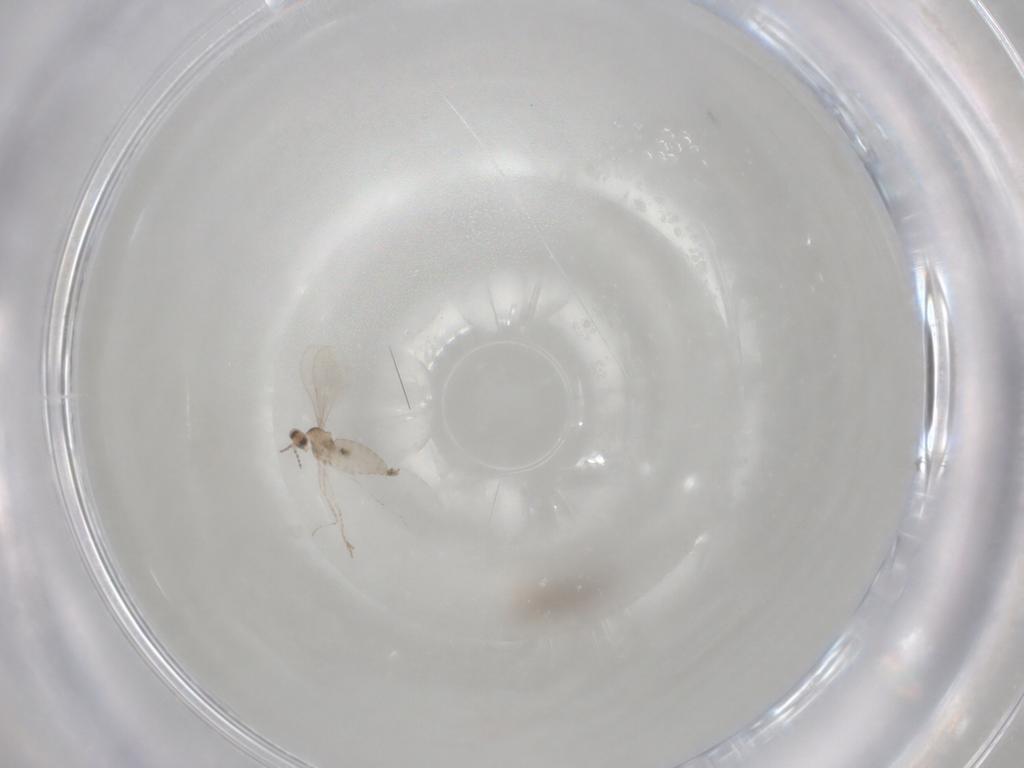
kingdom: Animalia
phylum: Arthropoda
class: Insecta
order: Diptera
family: Cecidomyiidae
